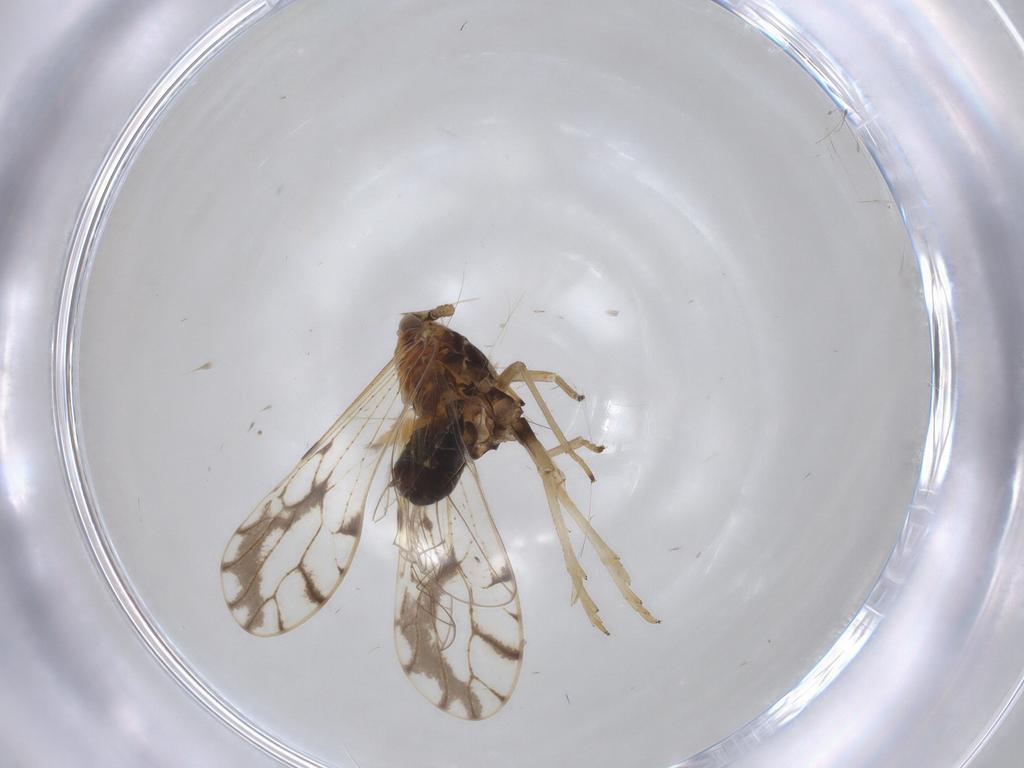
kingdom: Animalia
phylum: Arthropoda
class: Insecta
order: Hemiptera
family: Delphacidae
